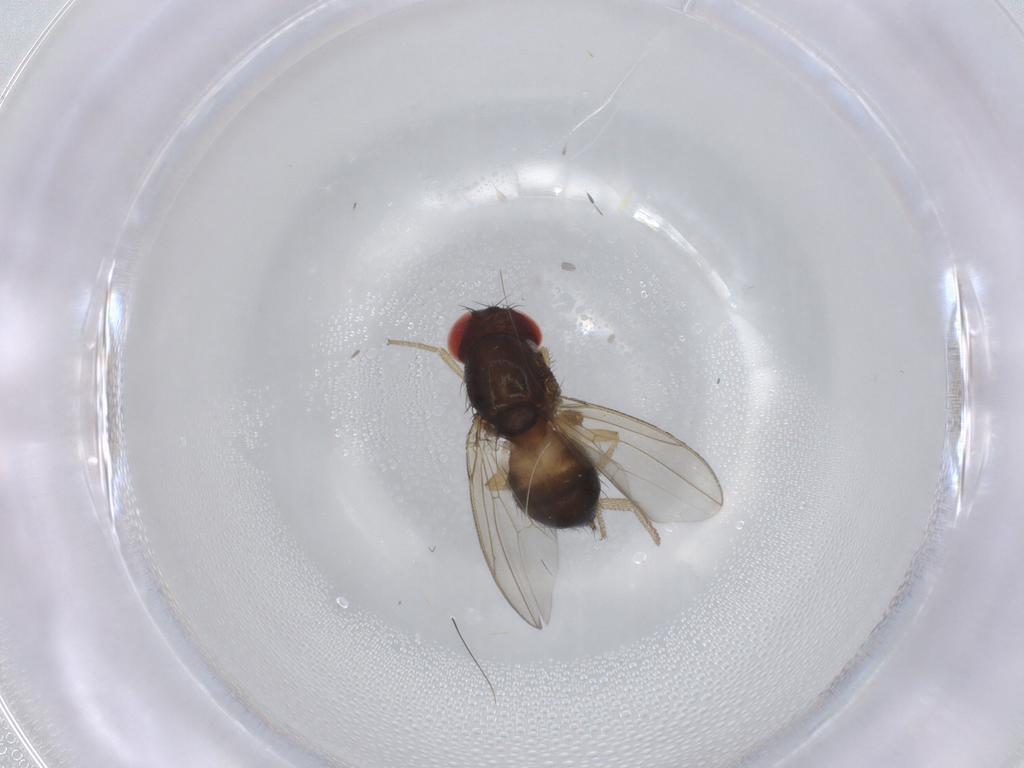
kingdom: Animalia
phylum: Arthropoda
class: Insecta
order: Diptera
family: Drosophilidae
